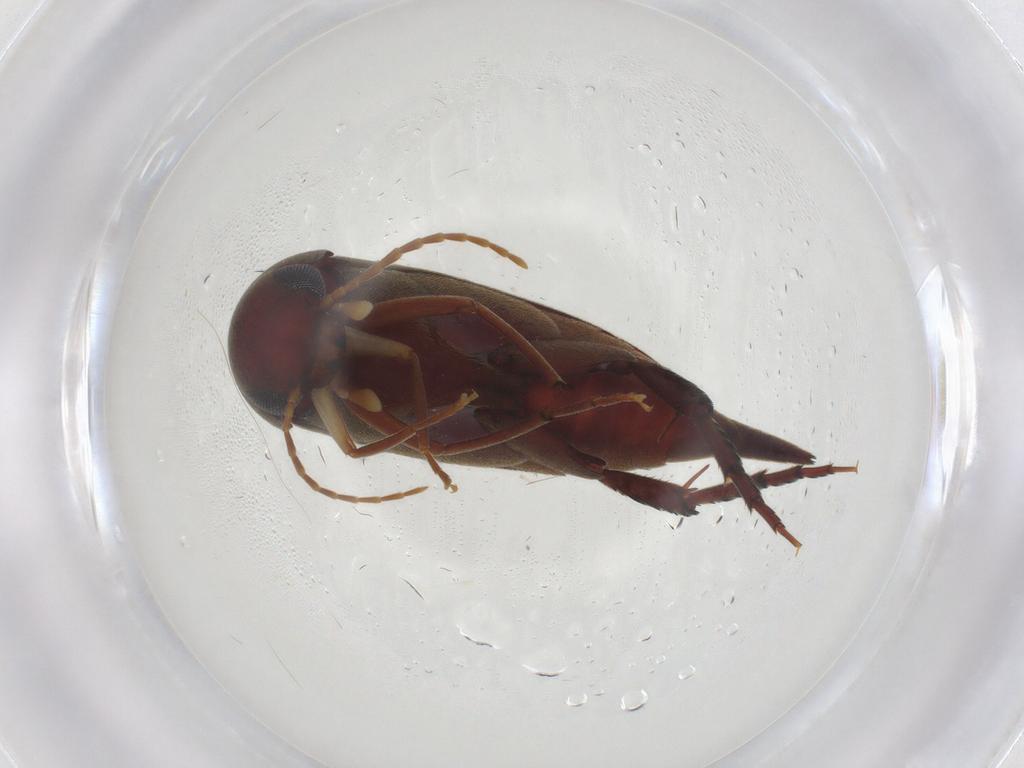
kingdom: Animalia
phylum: Arthropoda
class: Insecta
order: Coleoptera
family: Mordellidae
